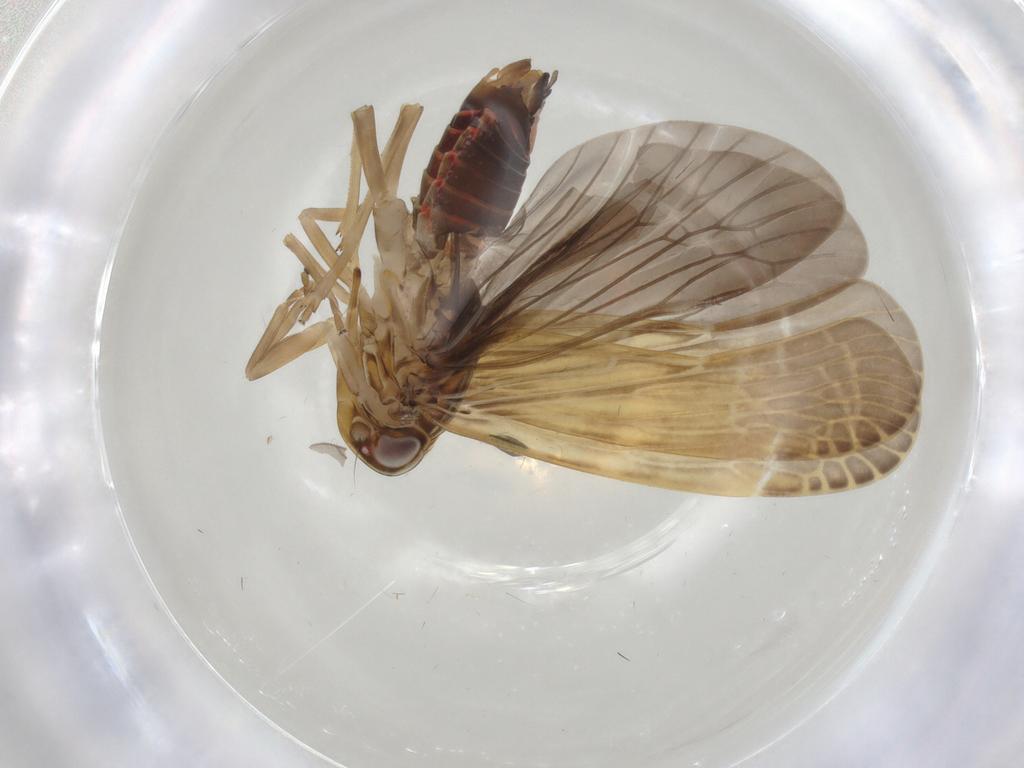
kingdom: Animalia
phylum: Arthropoda
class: Insecta
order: Hemiptera
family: Achilidae
